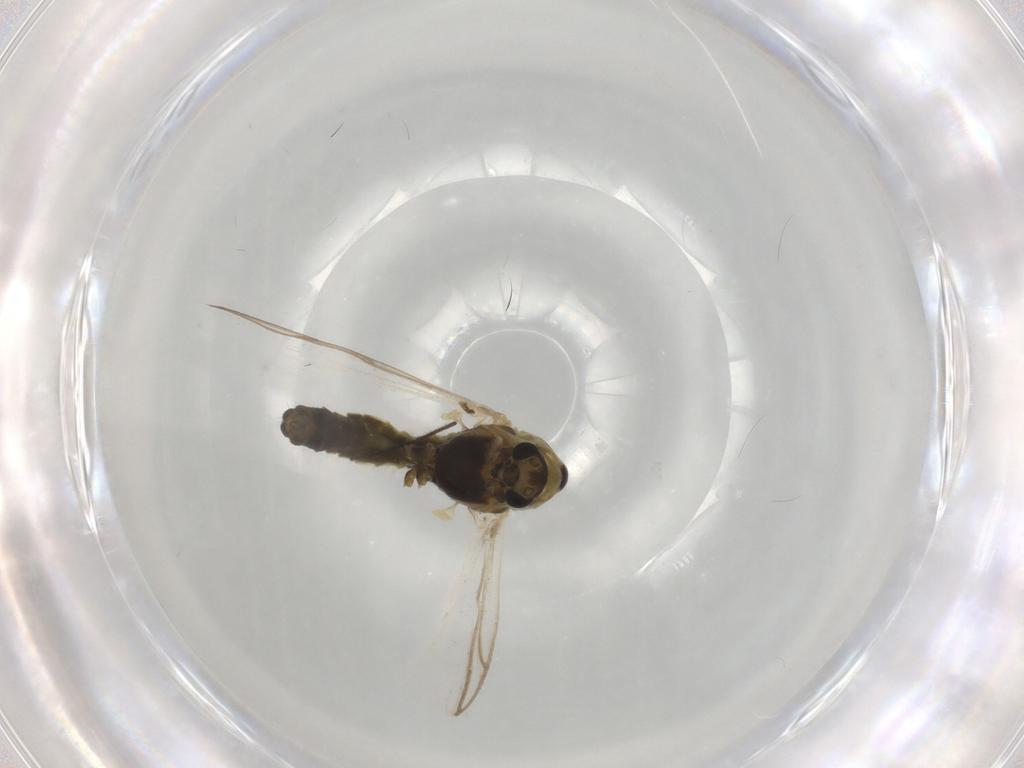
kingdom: Animalia
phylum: Arthropoda
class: Insecta
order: Diptera
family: Chironomidae
